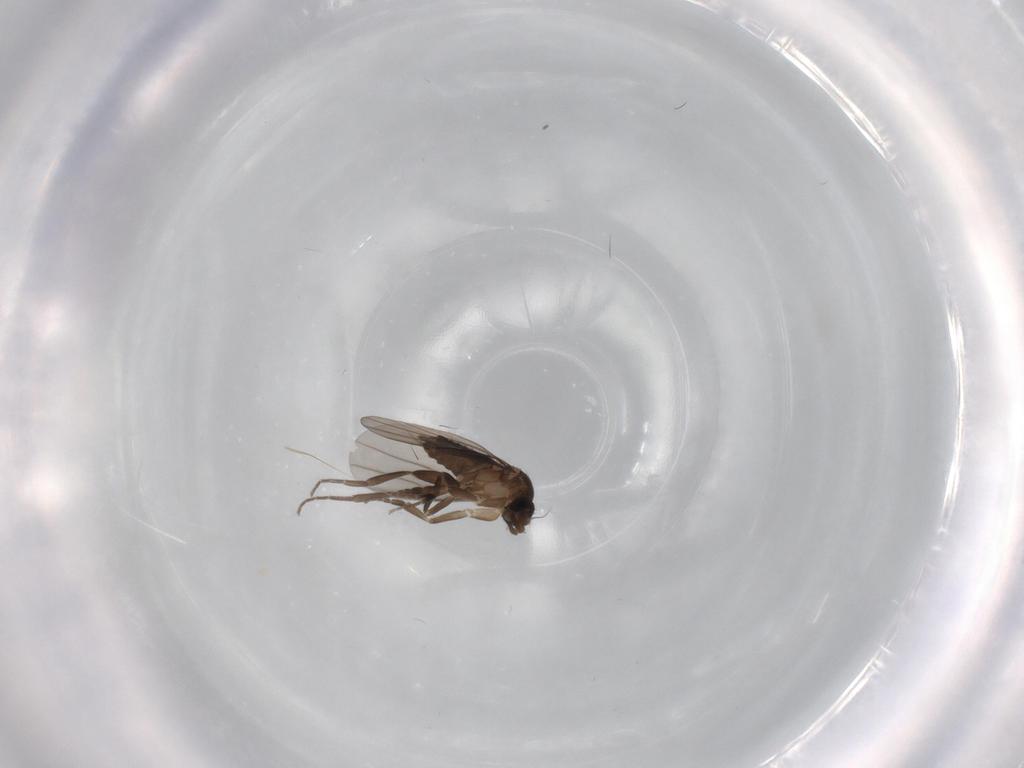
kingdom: Animalia
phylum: Arthropoda
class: Insecta
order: Diptera
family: Phoridae
